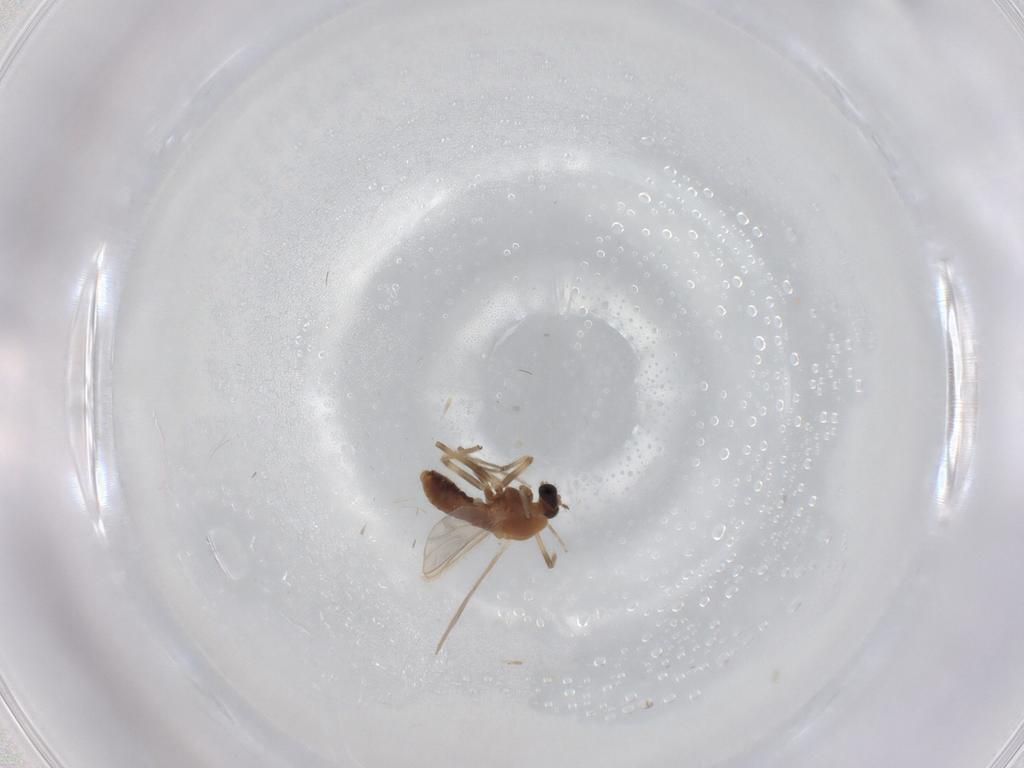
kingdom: Animalia
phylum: Arthropoda
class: Insecta
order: Diptera
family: Chironomidae
